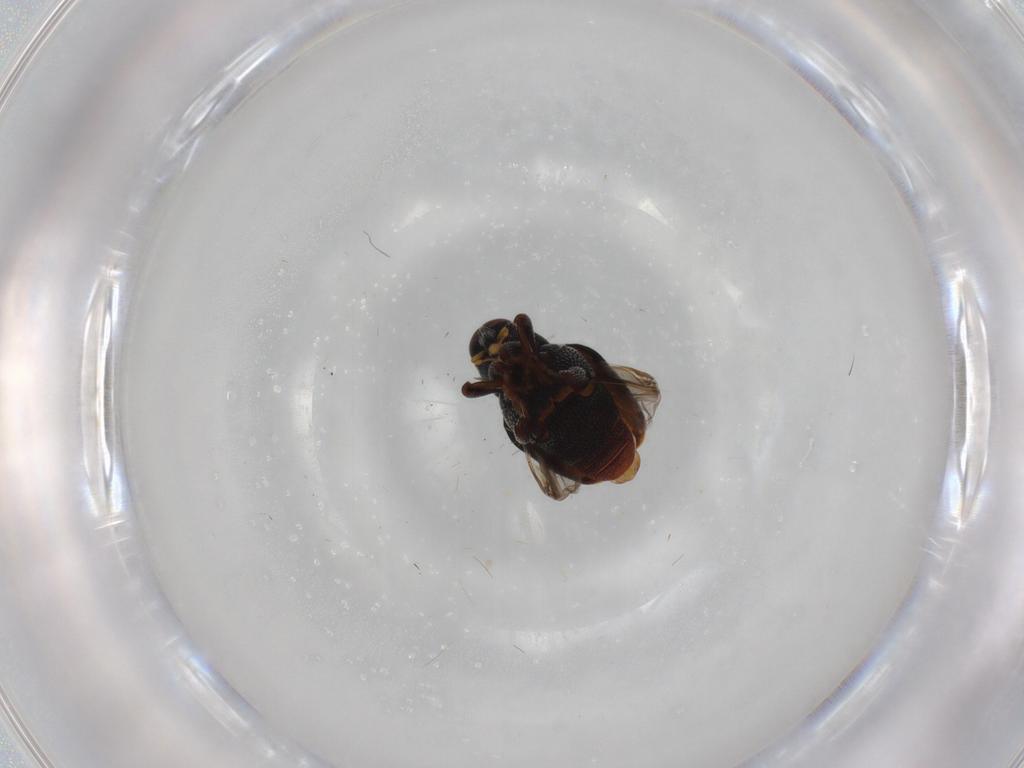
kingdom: Animalia
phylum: Arthropoda
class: Insecta
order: Coleoptera
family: Curculionidae
